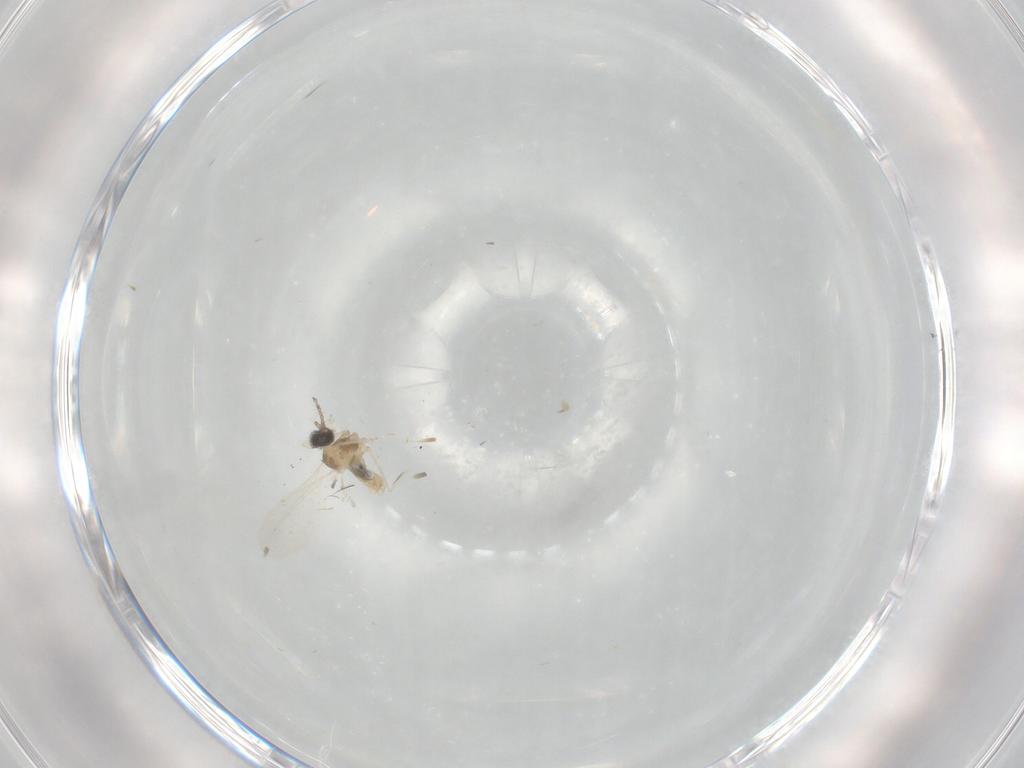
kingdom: Animalia
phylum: Arthropoda
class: Insecta
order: Diptera
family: Cecidomyiidae
